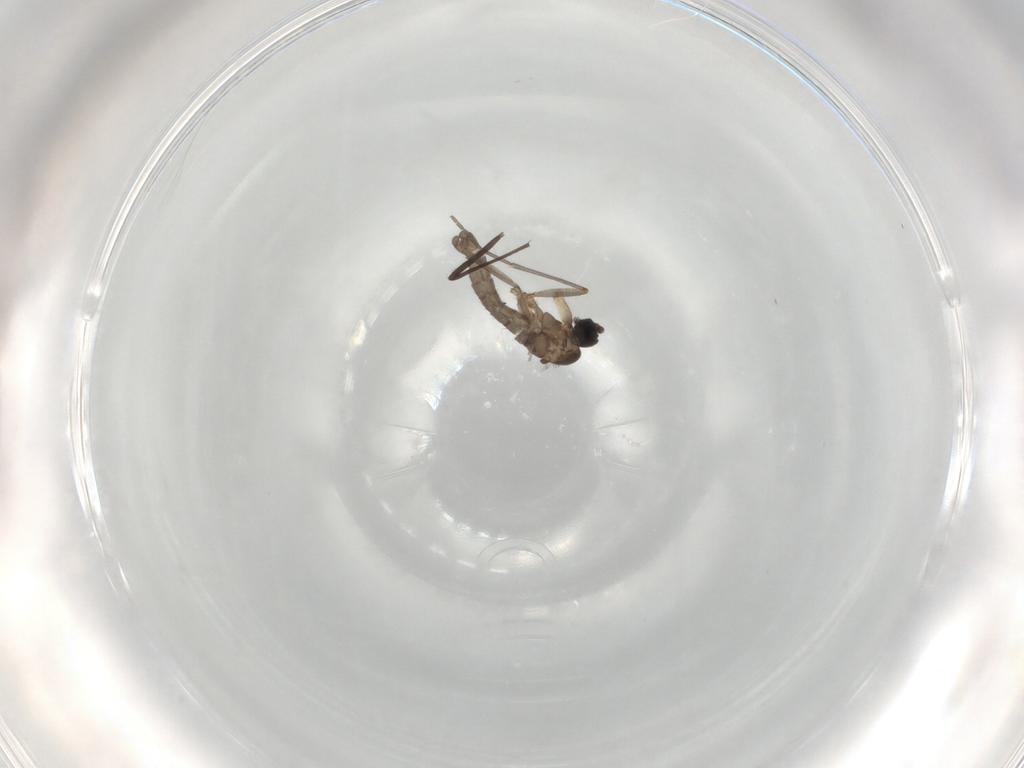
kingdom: Animalia
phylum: Arthropoda
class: Insecta
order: Diptera
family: Sciaridae
